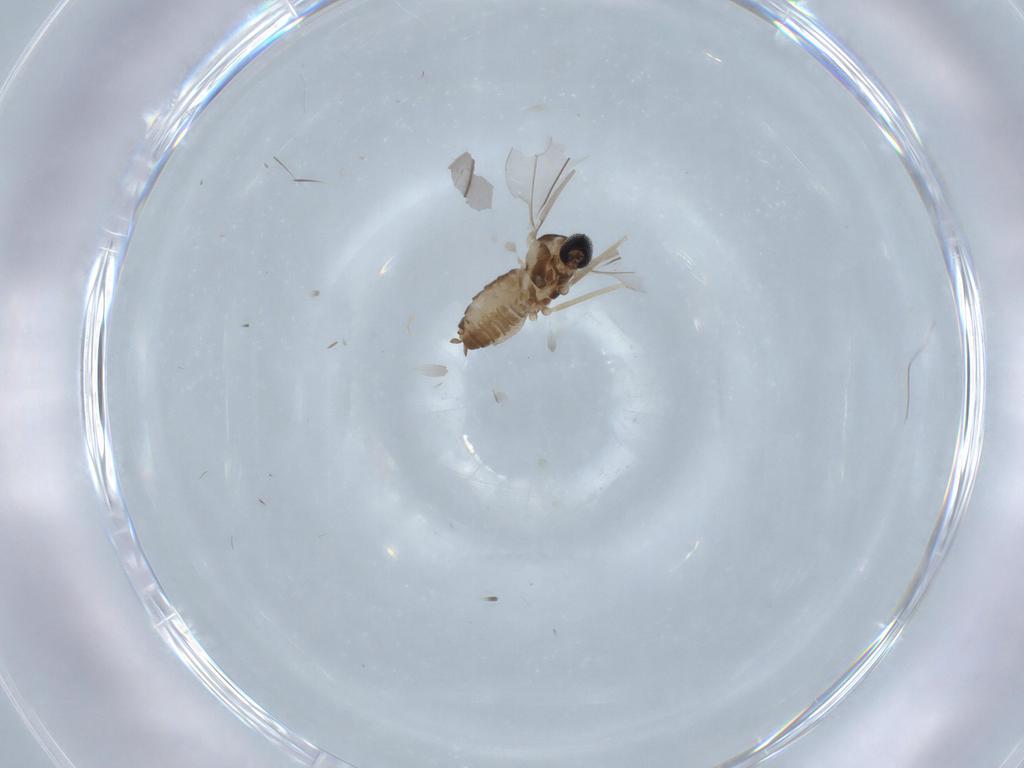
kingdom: Animalia
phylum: Arthropoda
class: Insecta
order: Diptera
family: Cecidomyiidae
